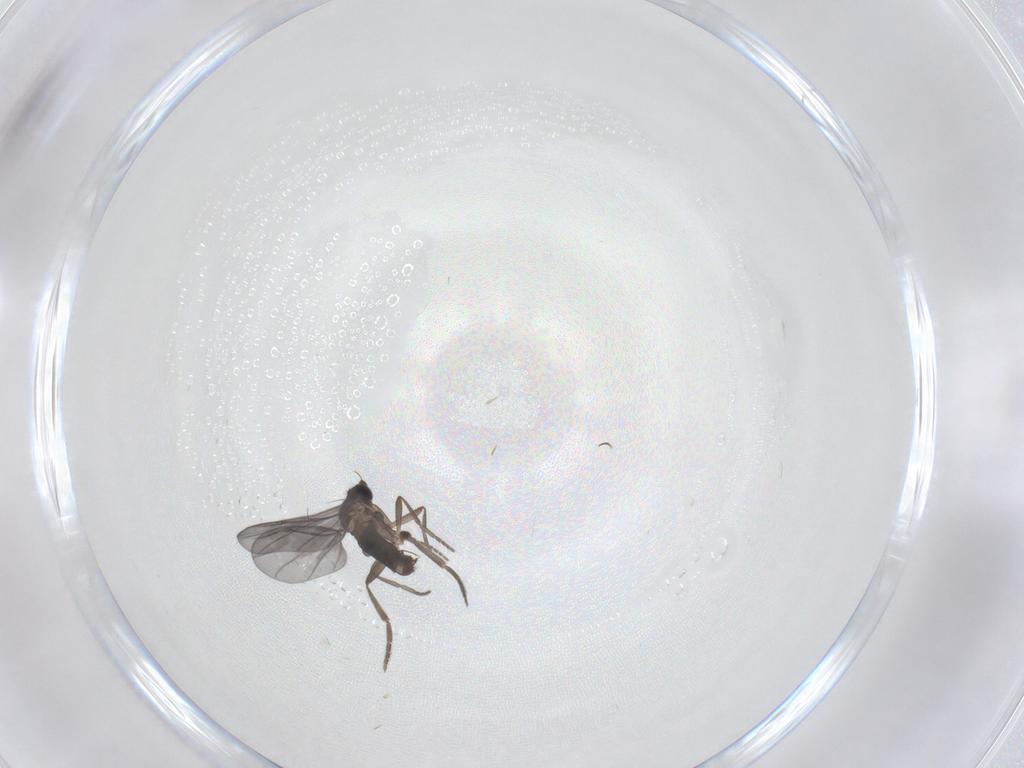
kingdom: Animalia
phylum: Arthropoda
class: Insecta
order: Diptera
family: Phoridae
